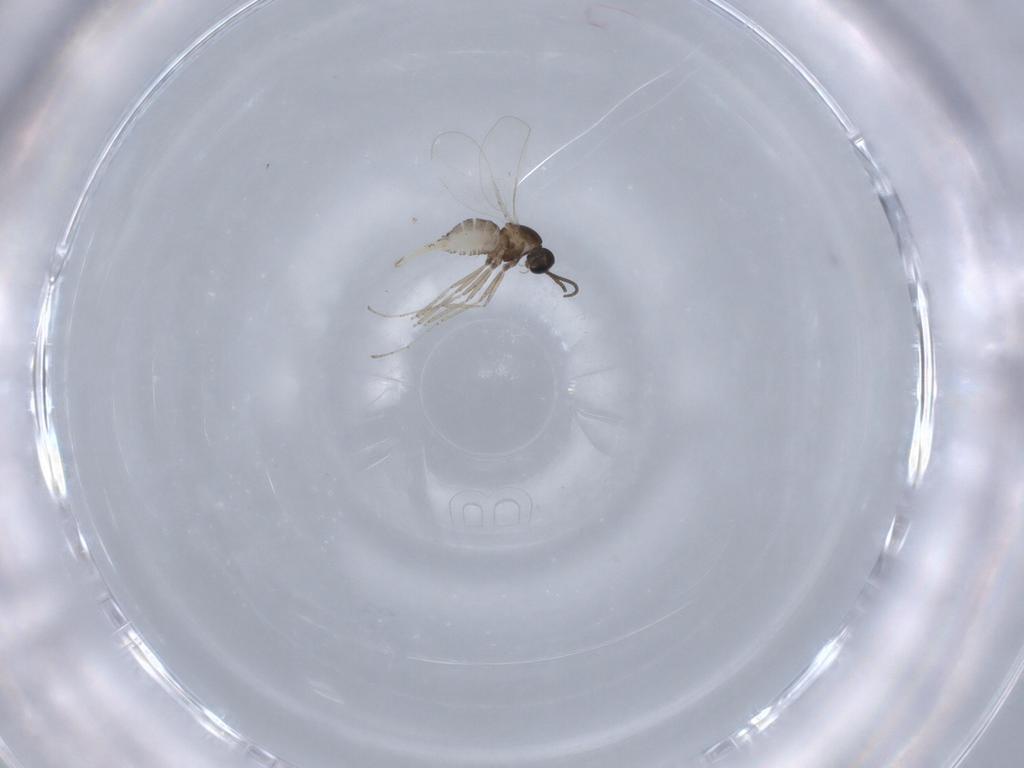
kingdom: Animalia
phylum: Arthropoda
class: Insecta
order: Diptera
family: Cecidomyiidae
